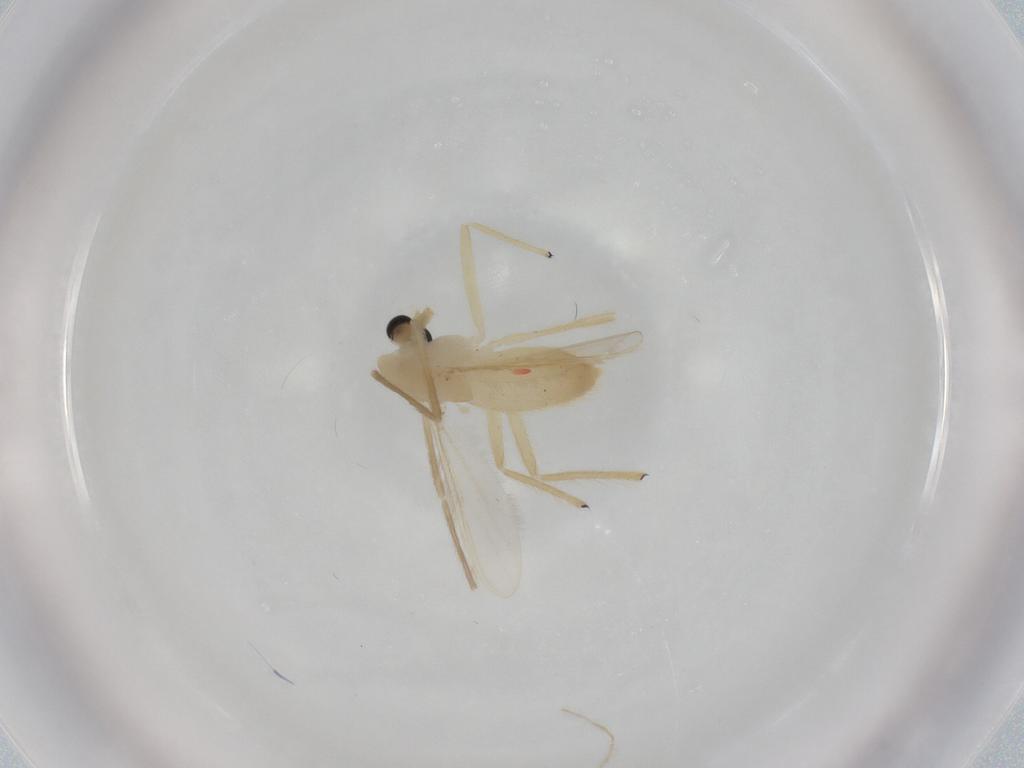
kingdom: Animalia
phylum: Arthropoda
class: Insecta
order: Diptera
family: Chironomidae
